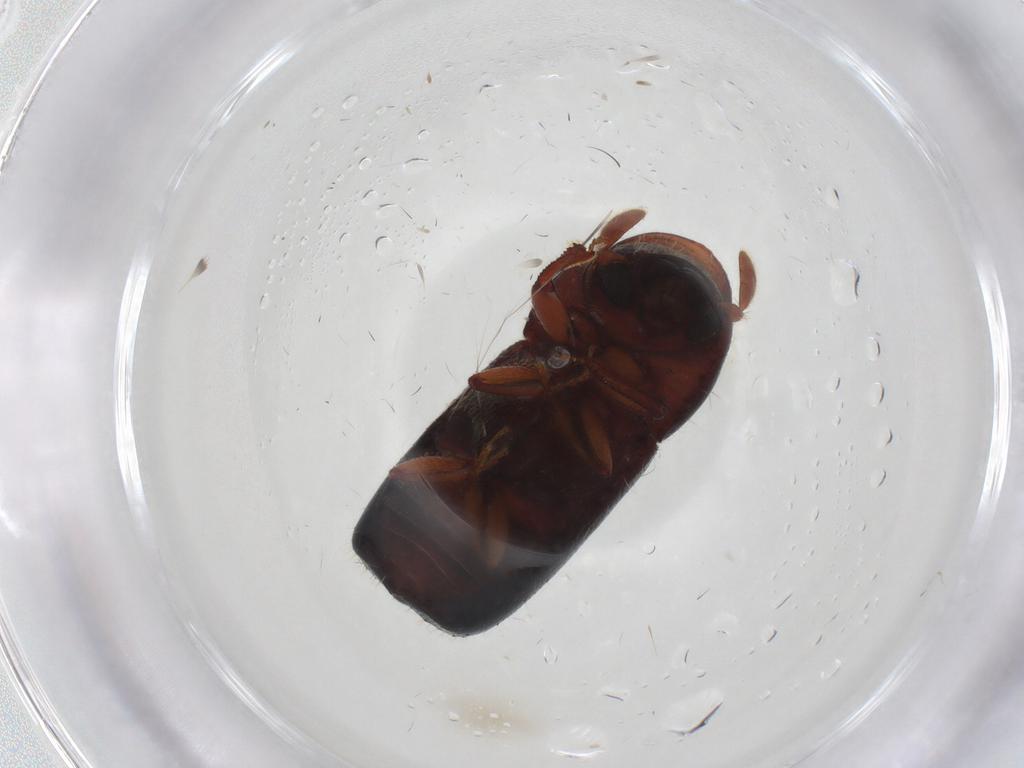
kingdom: Animalia
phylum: Arthropoda
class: Insecta
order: Coleoptera
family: Curculionidae
